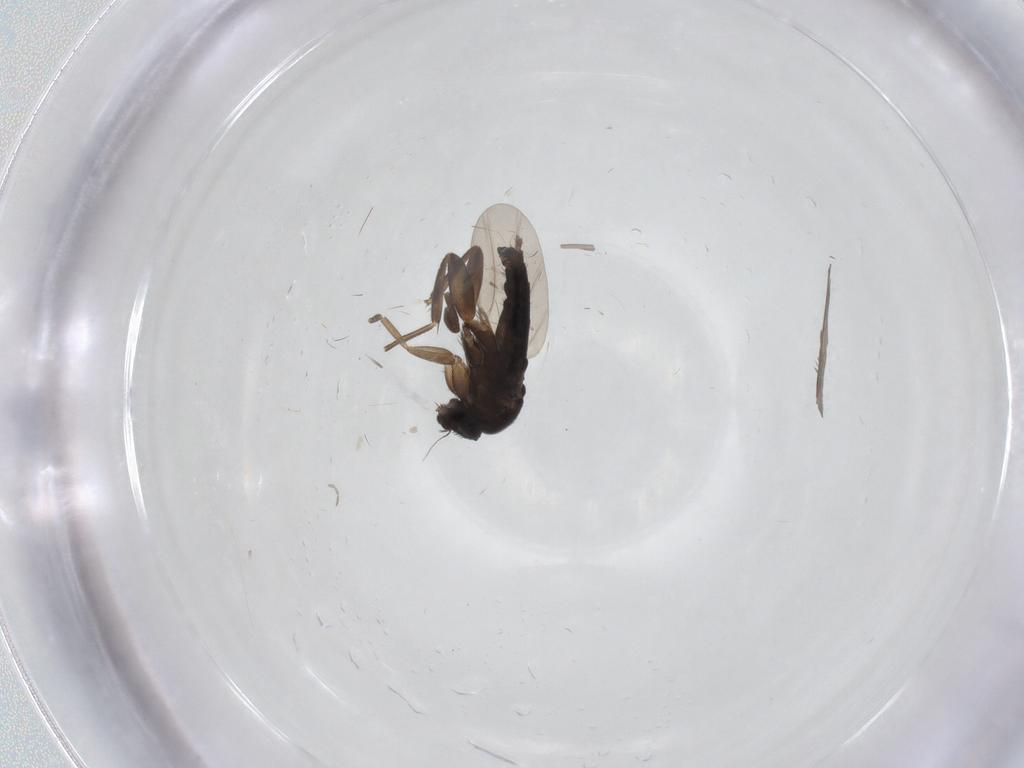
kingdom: Animalia
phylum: Arthropoda
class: Insecta
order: Diptera
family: Phoridae
